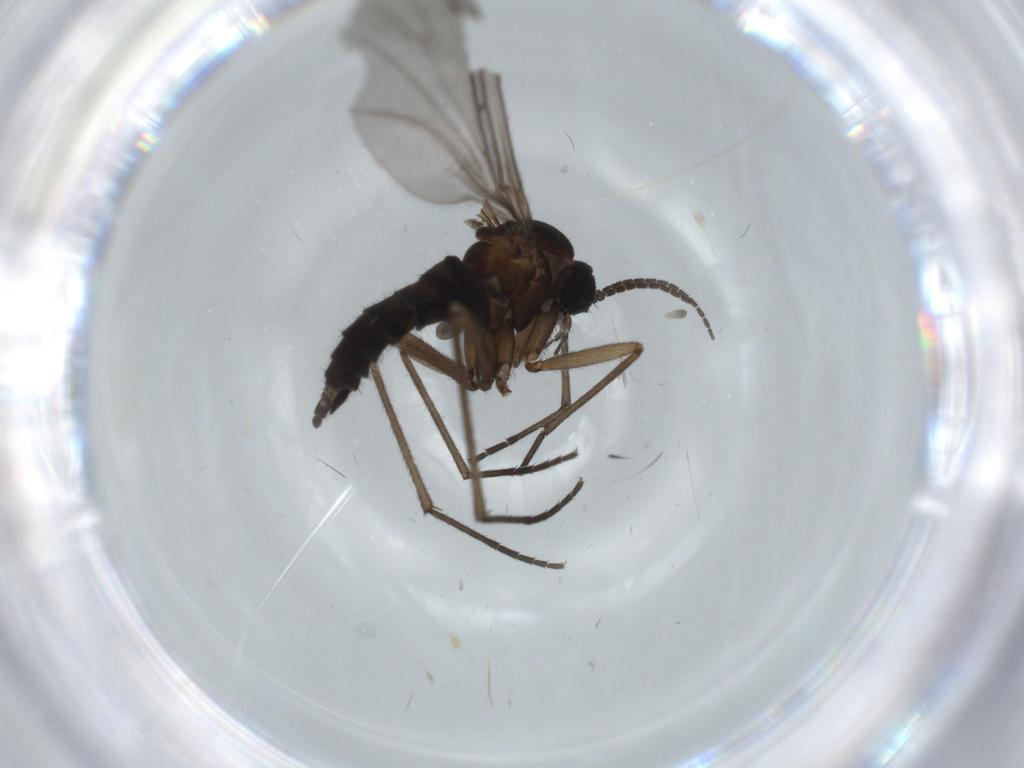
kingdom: Animalia
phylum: Arthropoda
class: Insecta
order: Diptera
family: Sciaridae
